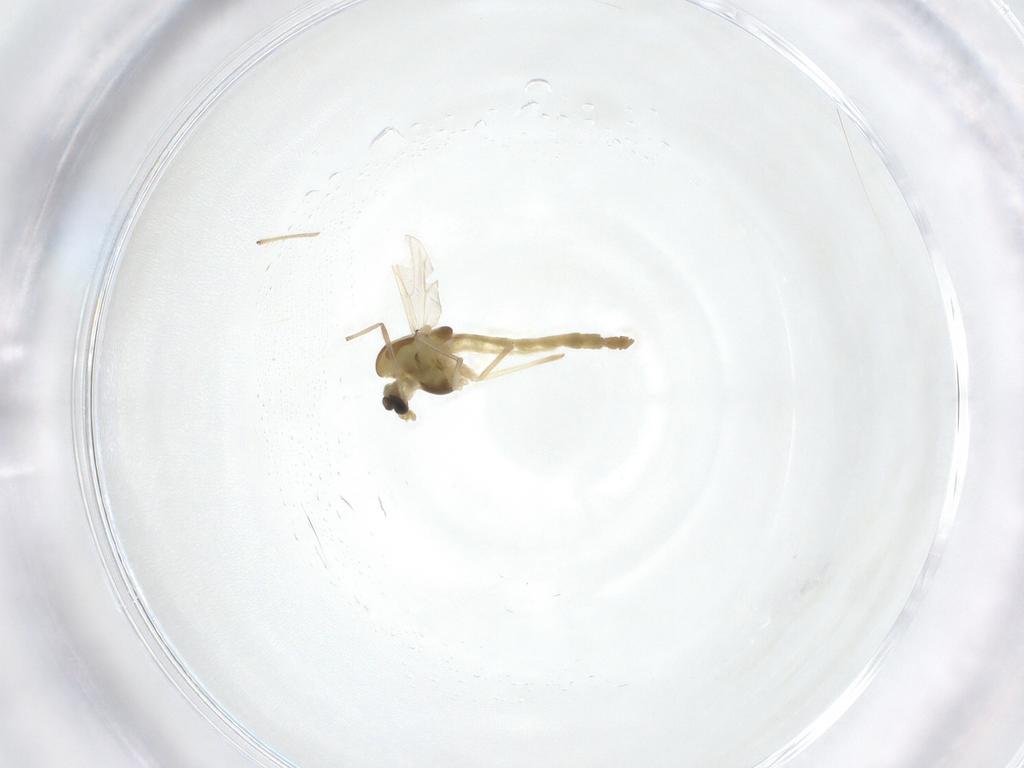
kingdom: Animalia
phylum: Arthropoda
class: Insecta
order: Diptera
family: Chironomidae
